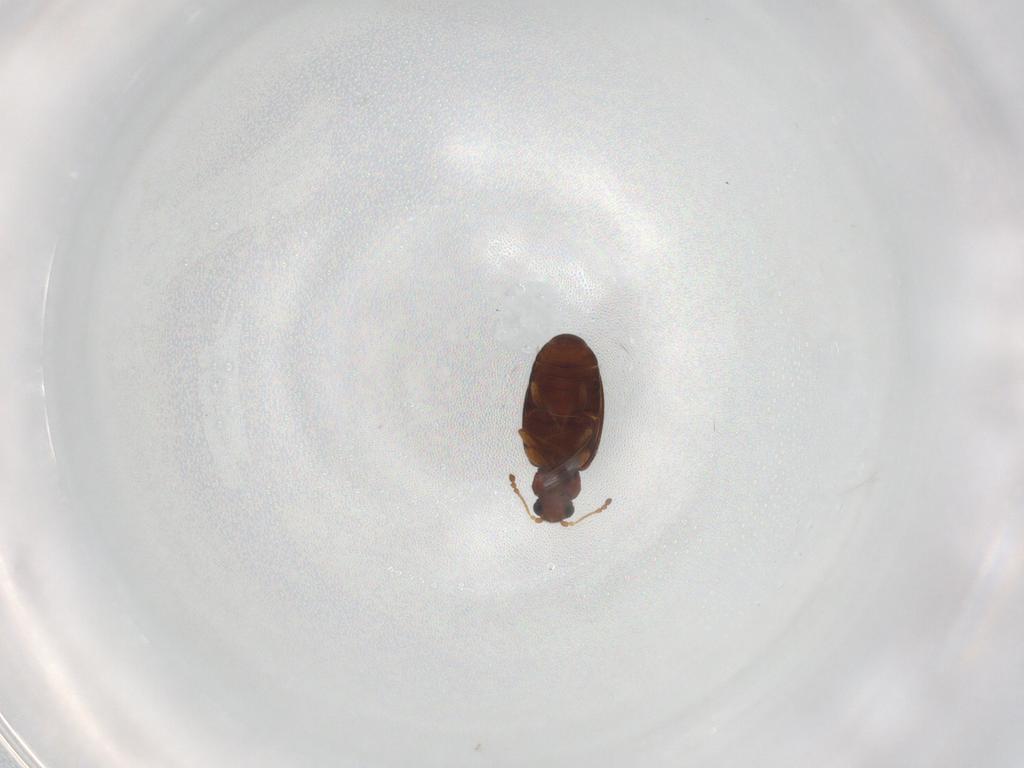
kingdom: Animalia
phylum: Arthropoda
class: Insecta
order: Coleoptera
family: Latridiidae
